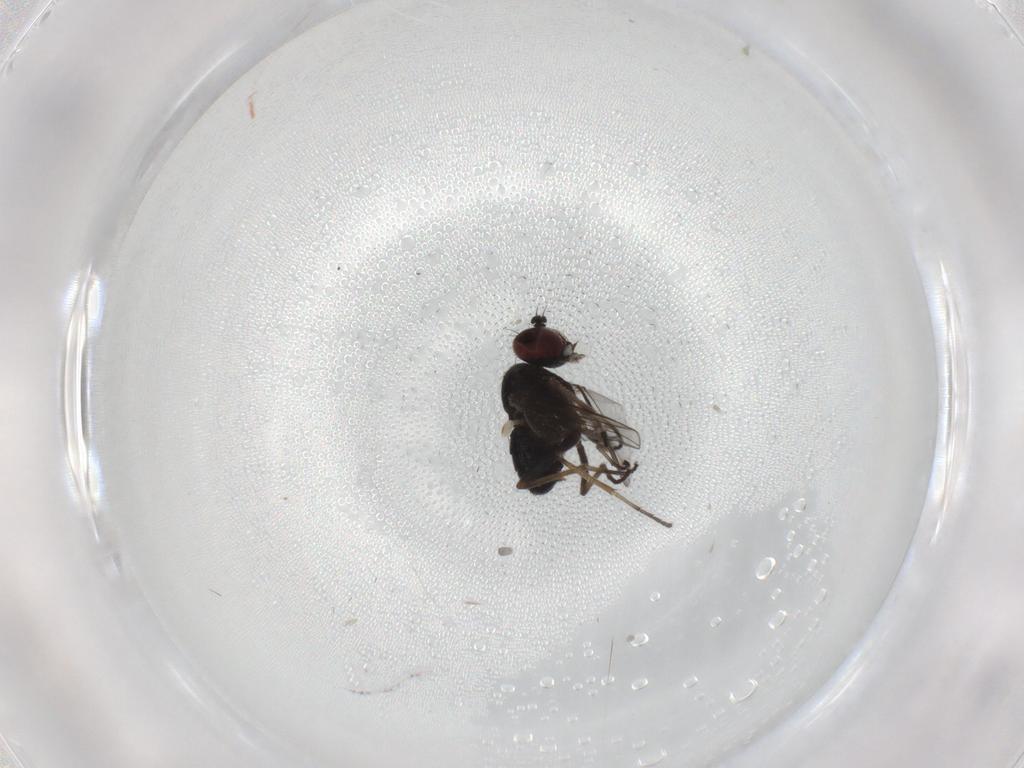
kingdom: Animalia
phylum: Arthropoda
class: Insecta
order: Diptera
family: Dolichopodidae
